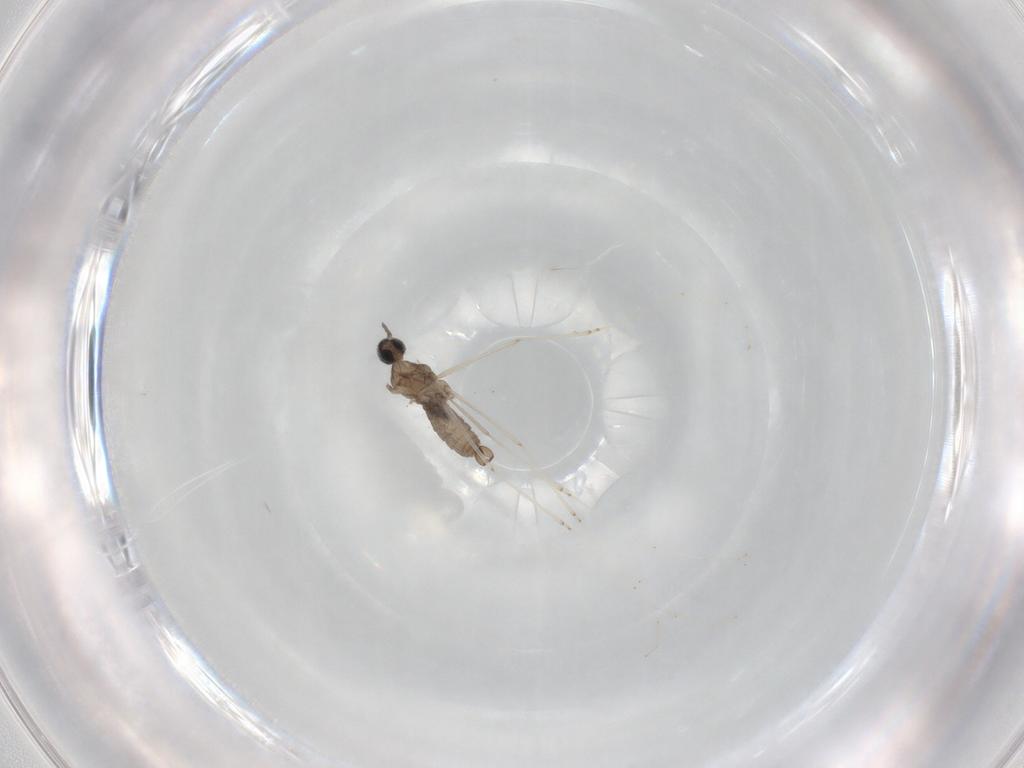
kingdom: Animalia
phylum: Arthropoda
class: Insecta
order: Diptera
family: Cecidomyiidae
